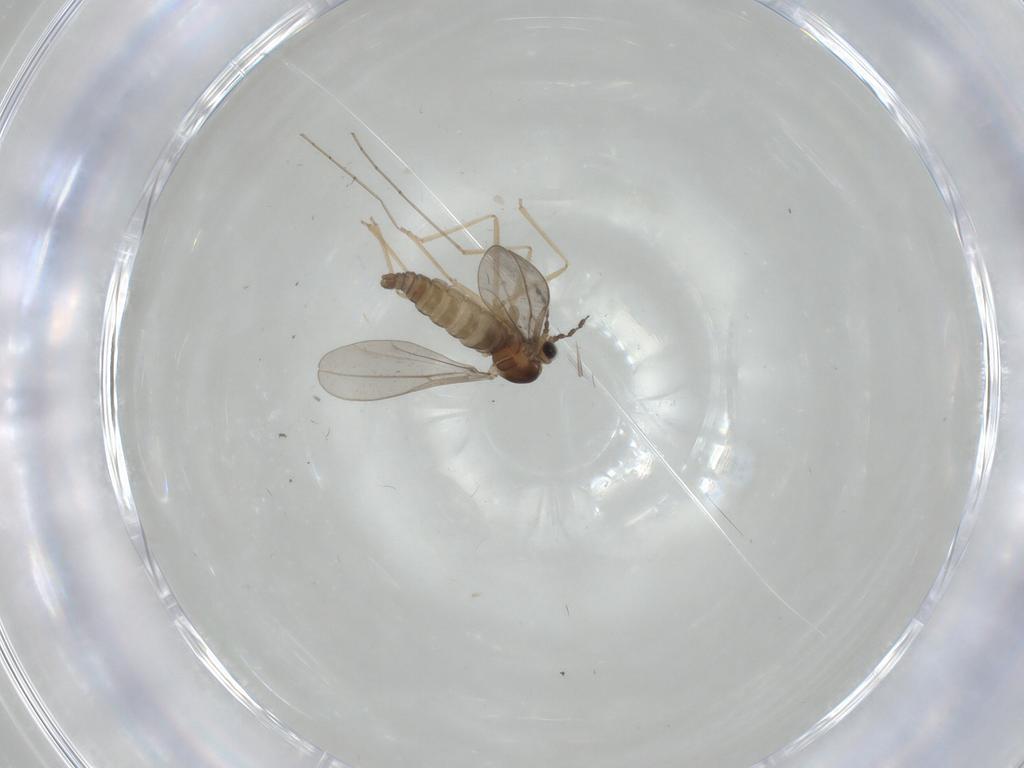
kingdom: Animalia
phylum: Arthropoda
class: Insecta
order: Diptera
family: Cecidomyiidae
